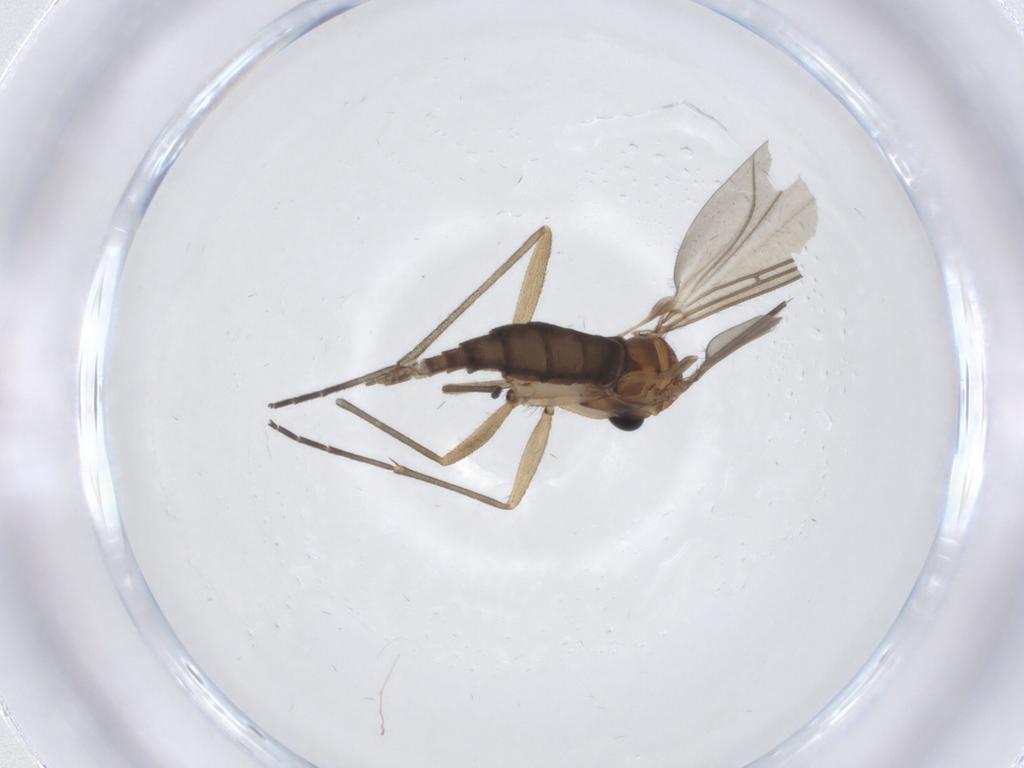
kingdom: Animalia
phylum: Arthropoda
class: Insecta
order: Diptera
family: Sciaridae
